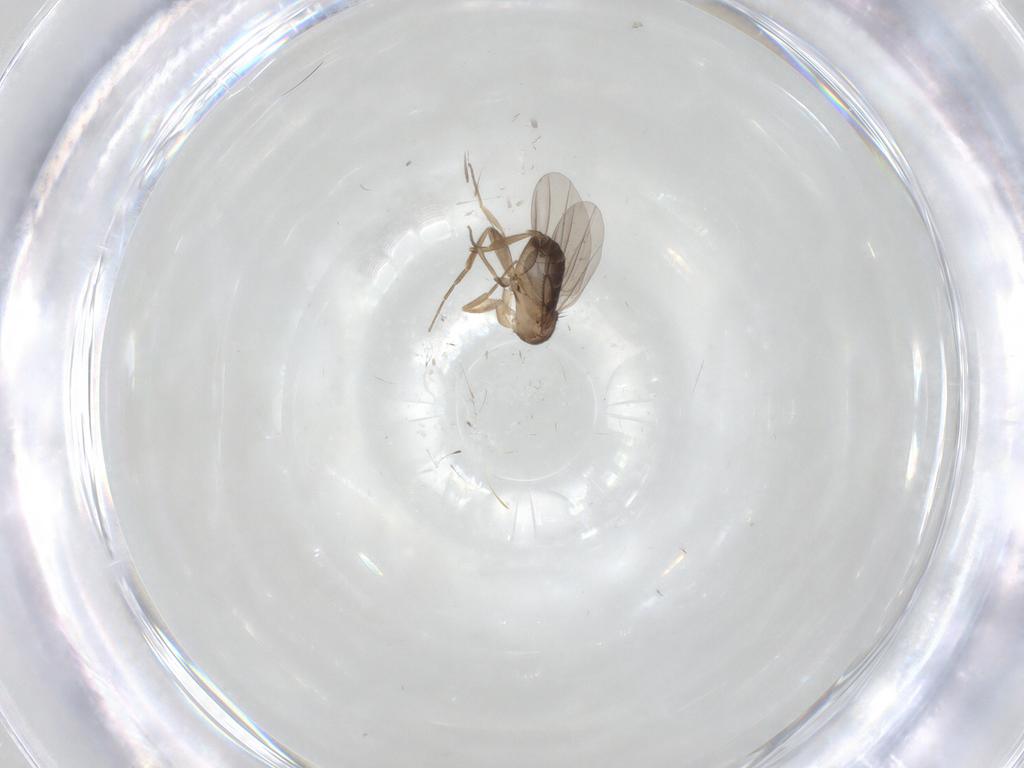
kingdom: Animalia
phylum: Arthropoda
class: Insecta
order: Diptera
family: Phoridae
